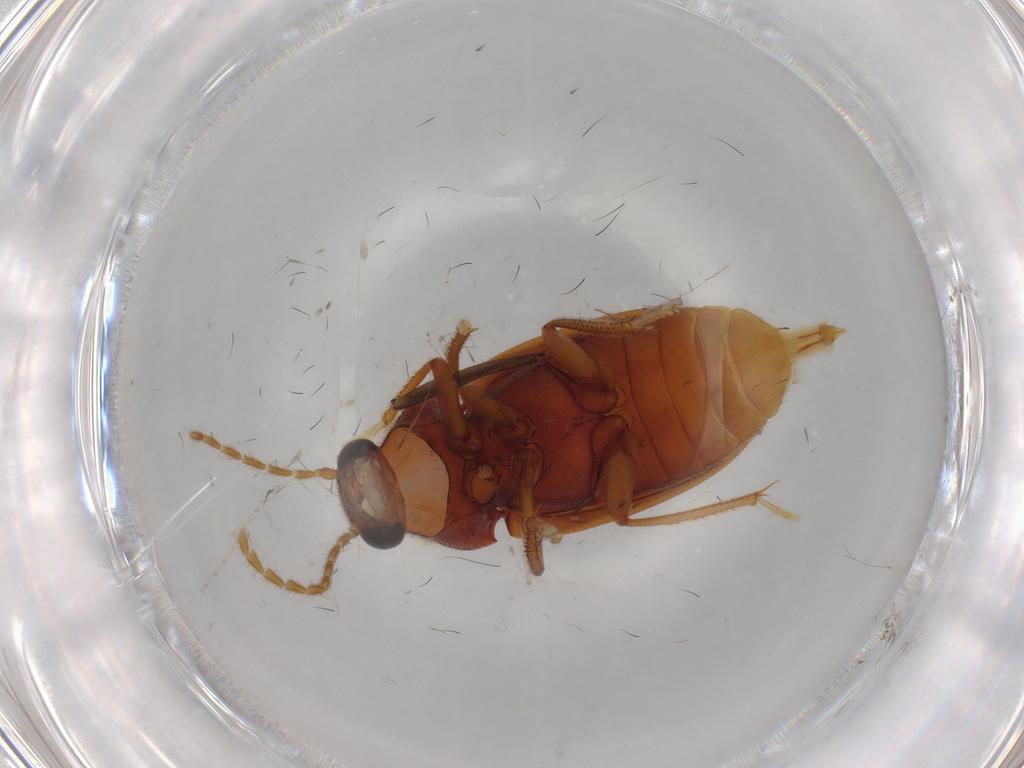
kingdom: Animalia
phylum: Arthropoda
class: Insecta
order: Coleoptera
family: Ptilodactylidae
